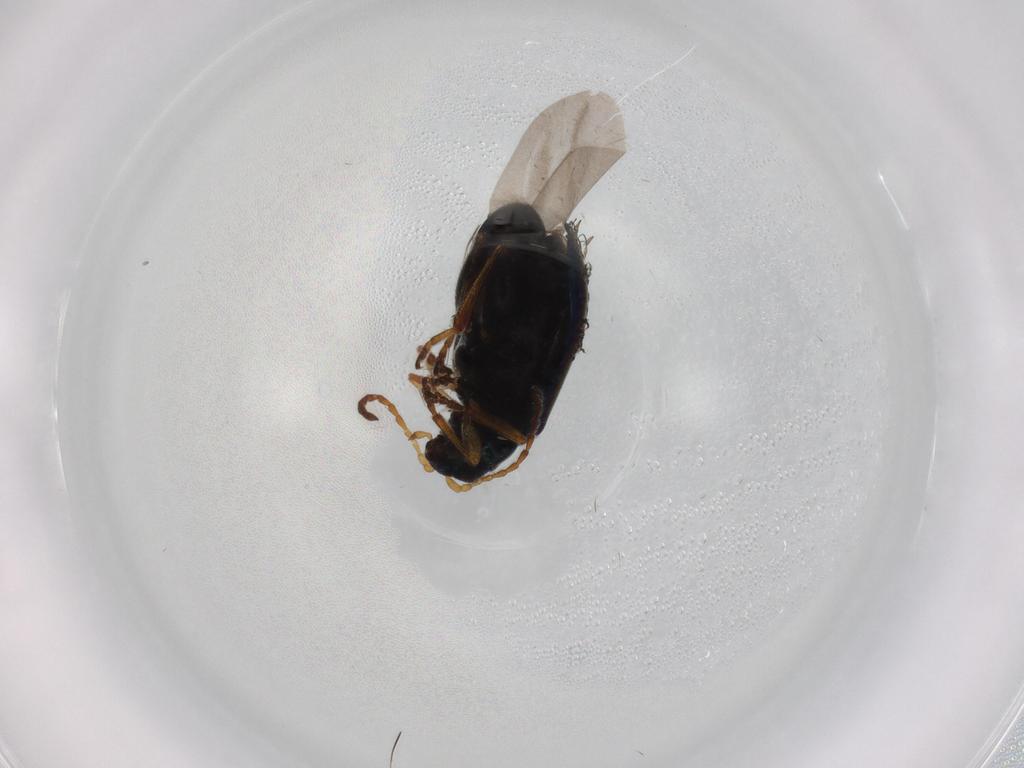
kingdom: Animalia
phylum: Arthropoda
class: Insecta
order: Coleoptera
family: Chrysomelidae
